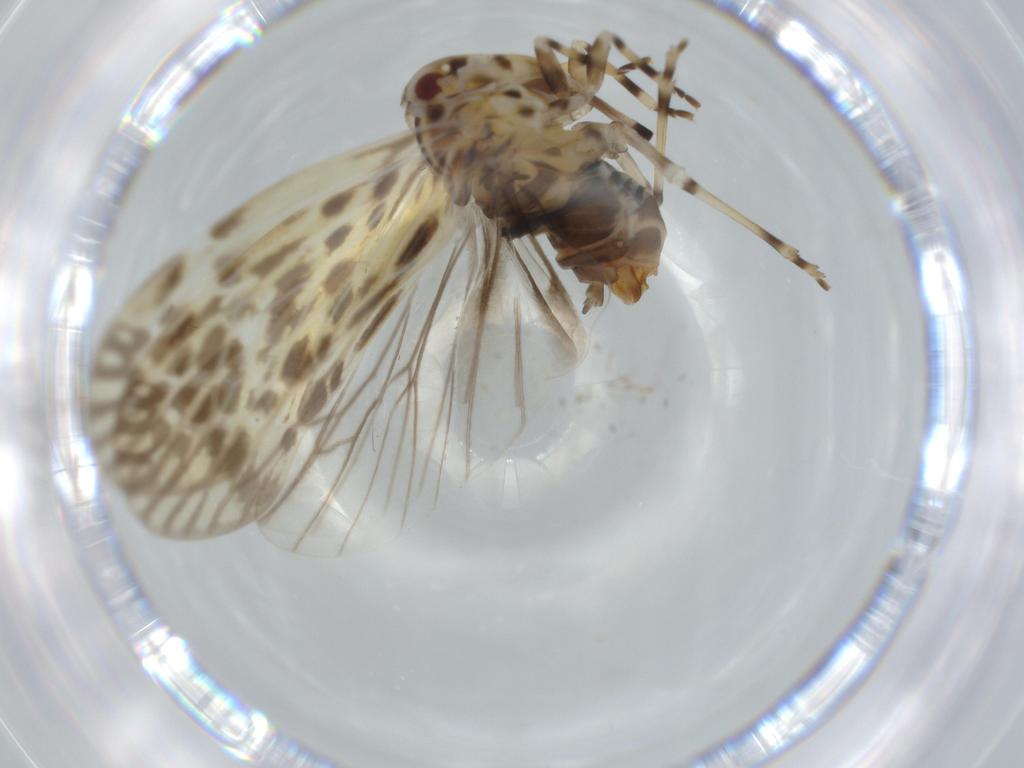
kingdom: Animalia
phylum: Arthropoda
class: Insecta
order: Hemiptera
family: Derbidae
